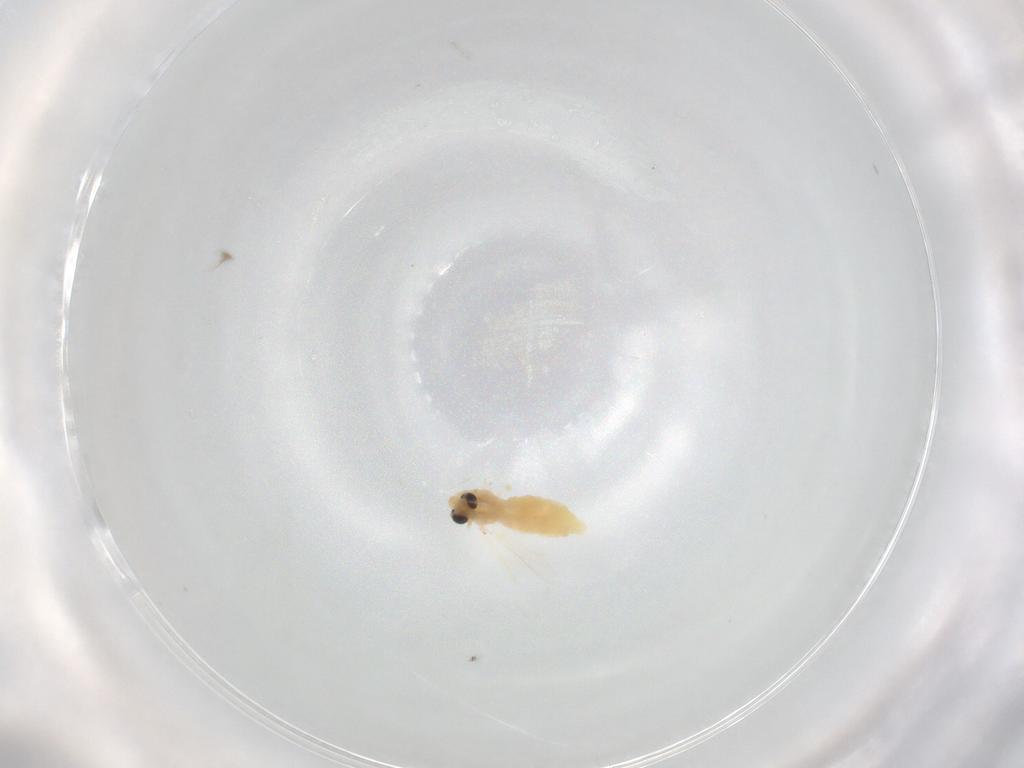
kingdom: Animalia
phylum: Arthropoda
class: Insecta
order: Diptera
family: Chironomidae
